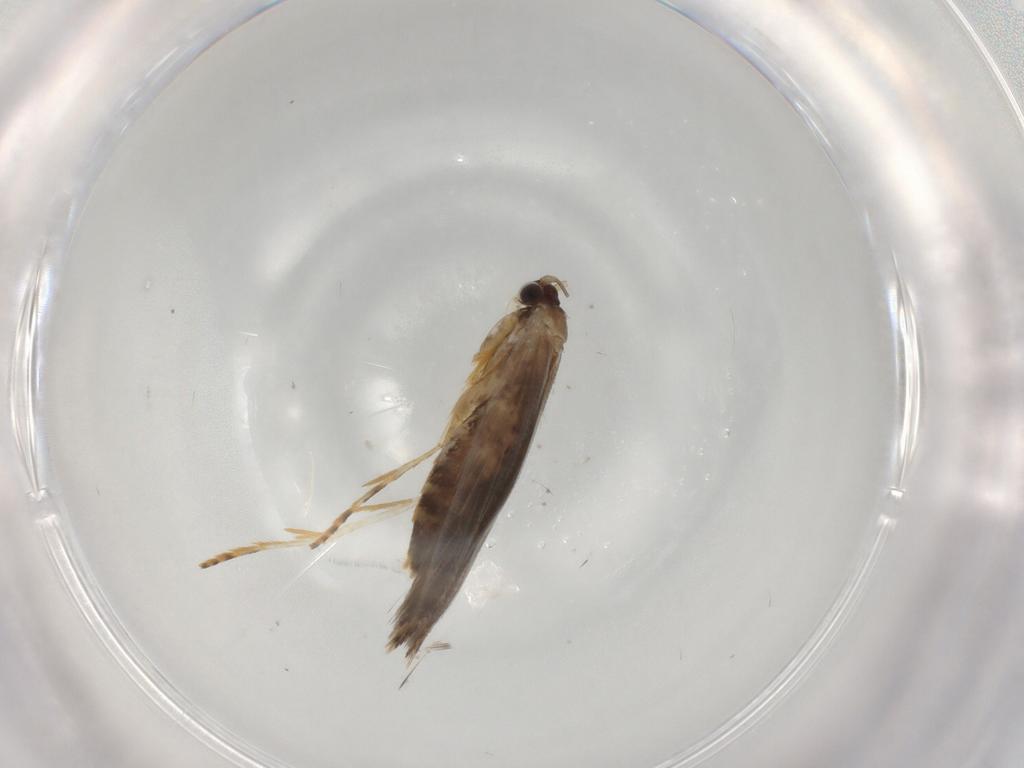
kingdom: Animalia
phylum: Arthropoda
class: Insecta
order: Lepidoptera
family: Tineidae
